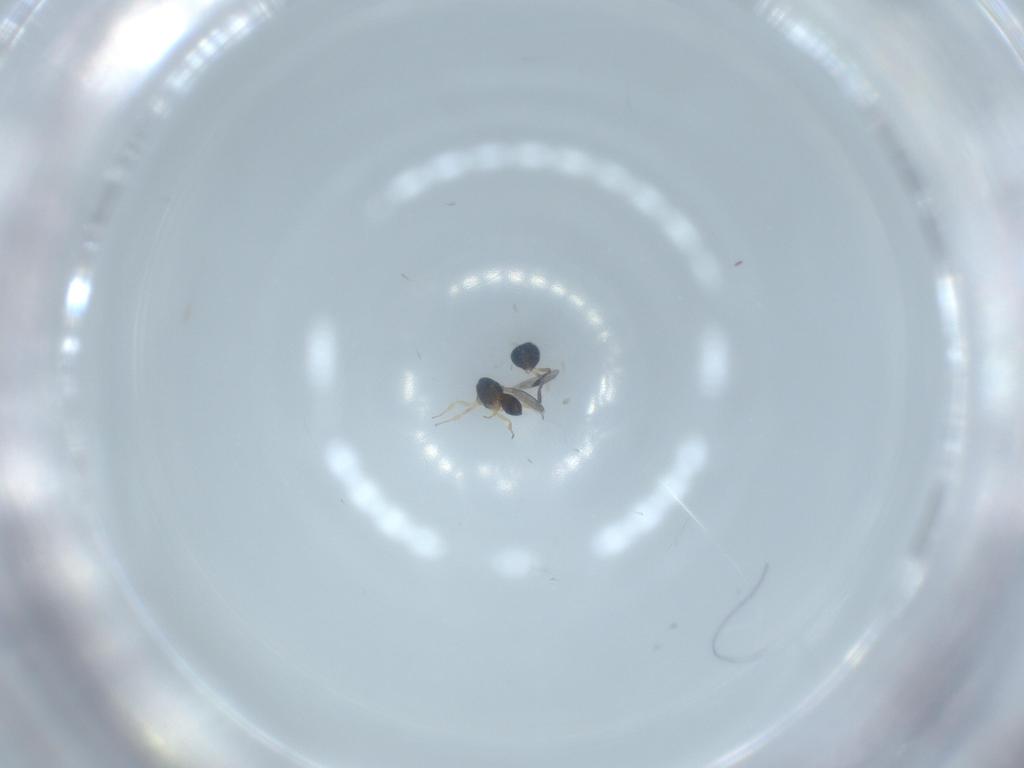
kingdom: Animalia
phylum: Arthropoda
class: Insecta
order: Hymenoptera
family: Scelionidae
